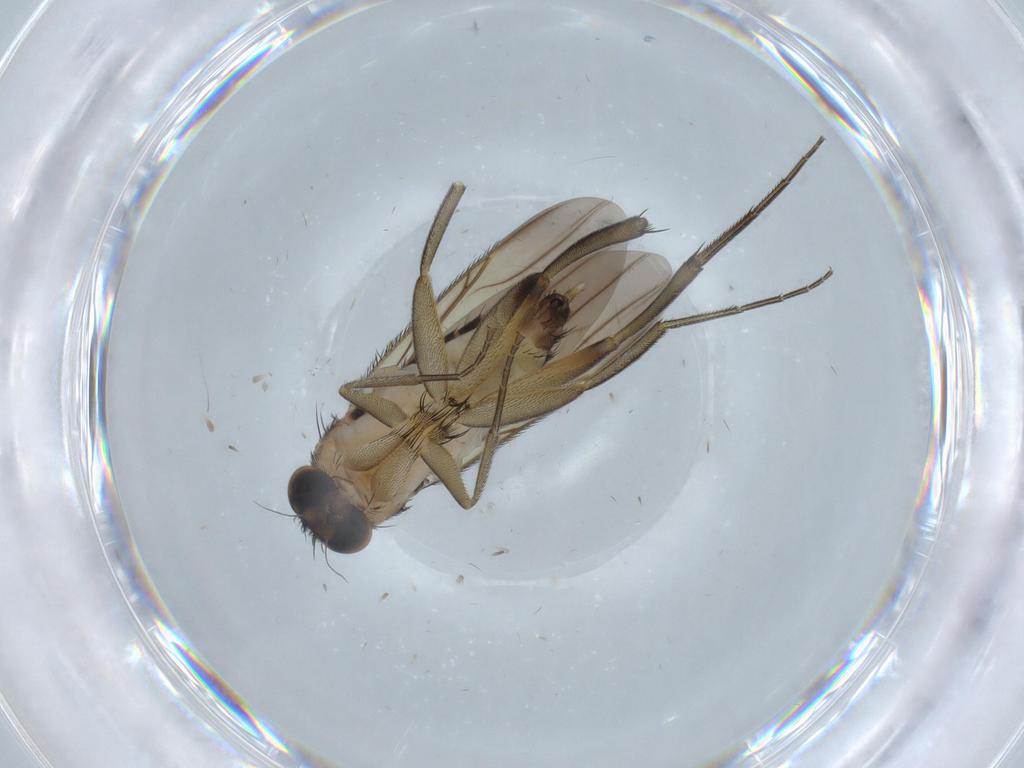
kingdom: Animalia
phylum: Arthropoda
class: Insecta
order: Diptera
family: Phoridae
